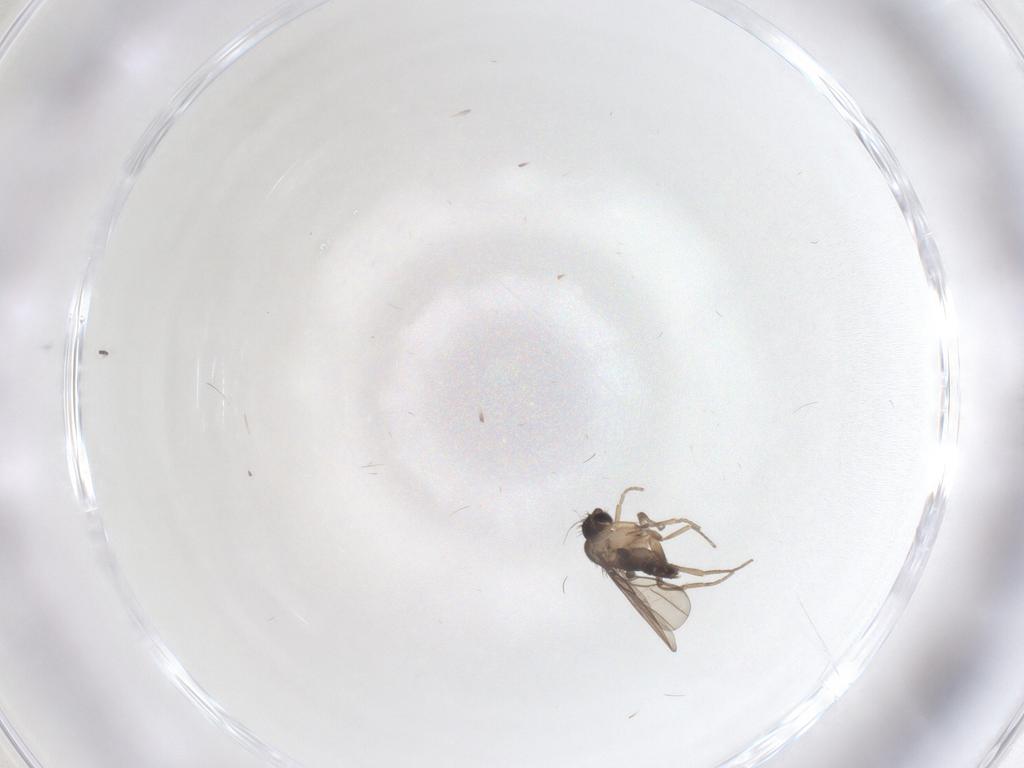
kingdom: Animalia
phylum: Arthropoda
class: Insecta
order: Diptera
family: Phoridae
